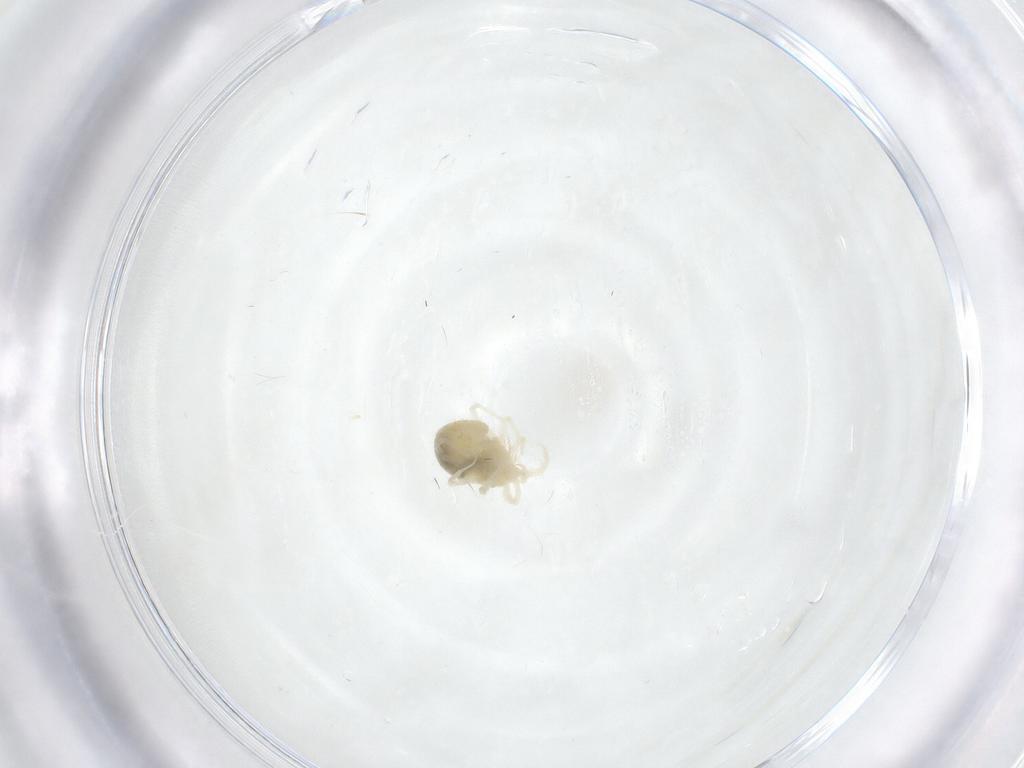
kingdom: Animalia
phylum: Arthropoda
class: Arachnida
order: Trombidiformes
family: Anystidae
